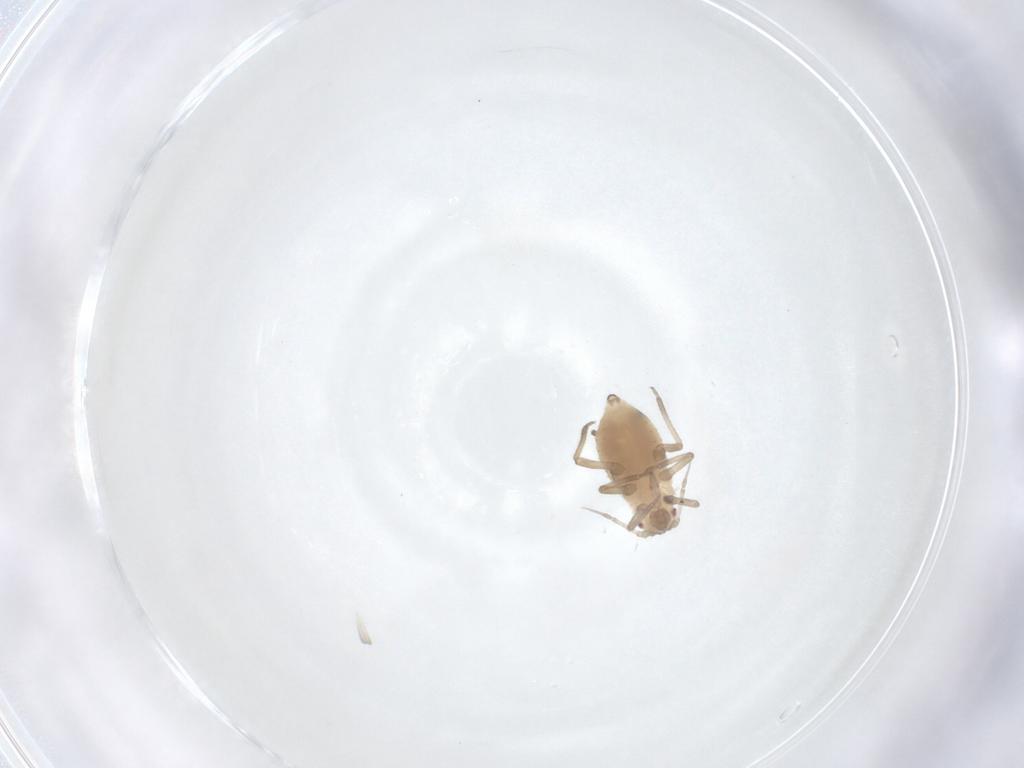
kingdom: Animalia
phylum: Arthropoda
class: Insecta
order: Hemiptera
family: Aphididae
